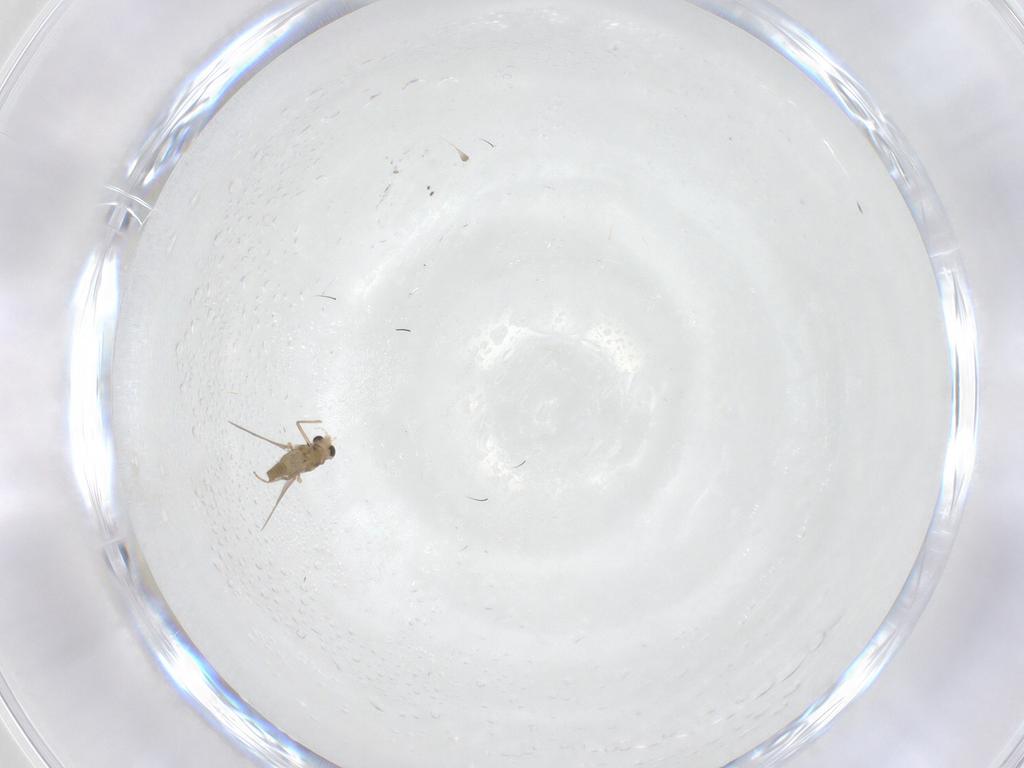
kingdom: Animalia
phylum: Arthropoda
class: Insecta
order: Diptera
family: Chironomidae
